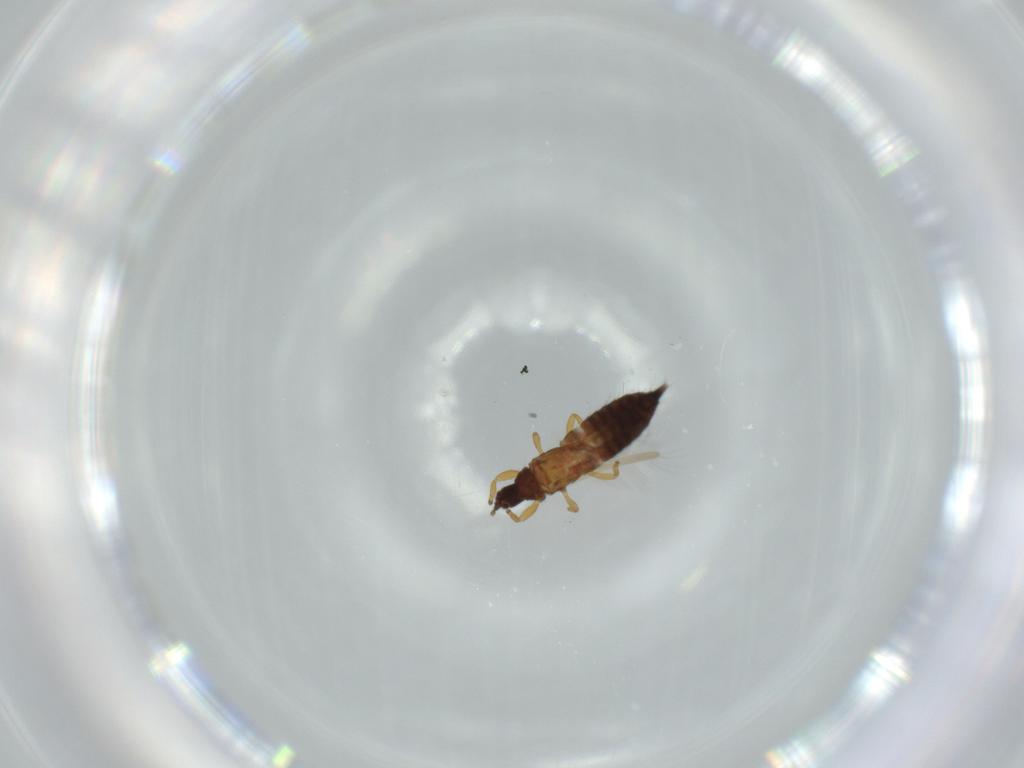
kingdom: Animalia
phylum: Arthropoda
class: Insecta
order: Thysanoptera
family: Phlaeothripidae
